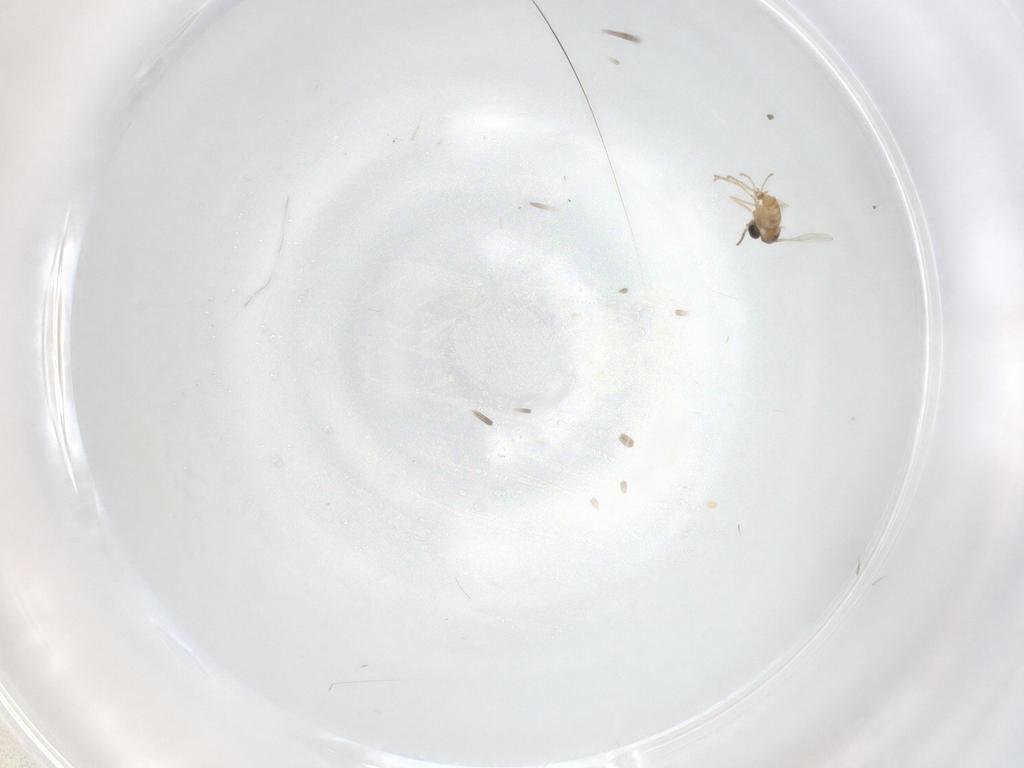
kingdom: Animalia
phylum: Arthropoda
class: Insecta
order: Diptera
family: Cecidomyiidae
